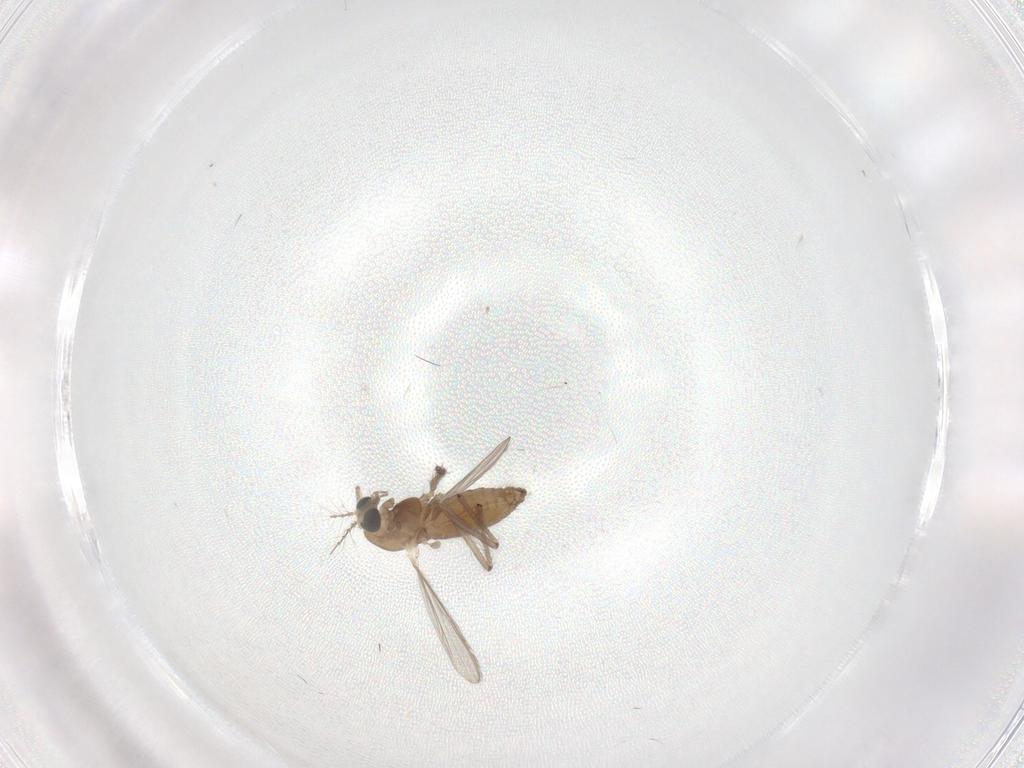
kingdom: Animalia
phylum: Arthropoda
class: Insecta
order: Diptera
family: Chironomidae
